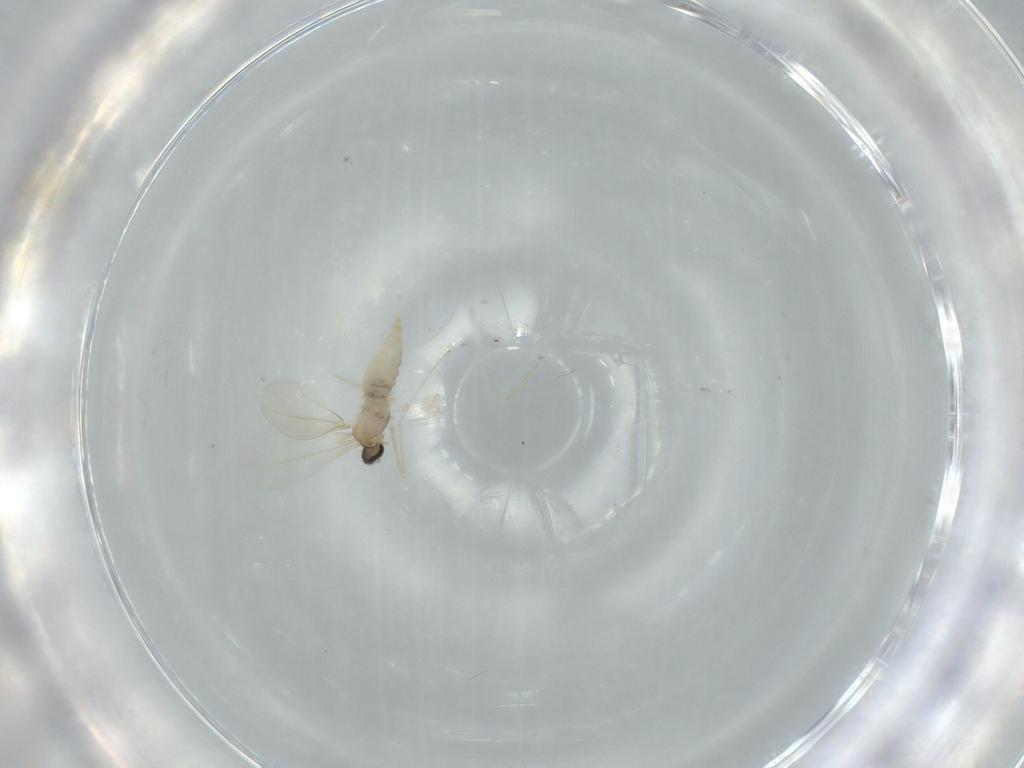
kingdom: Animalia
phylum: Arthropoda
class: Insecta
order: Diptera
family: Cecidomyiidae
